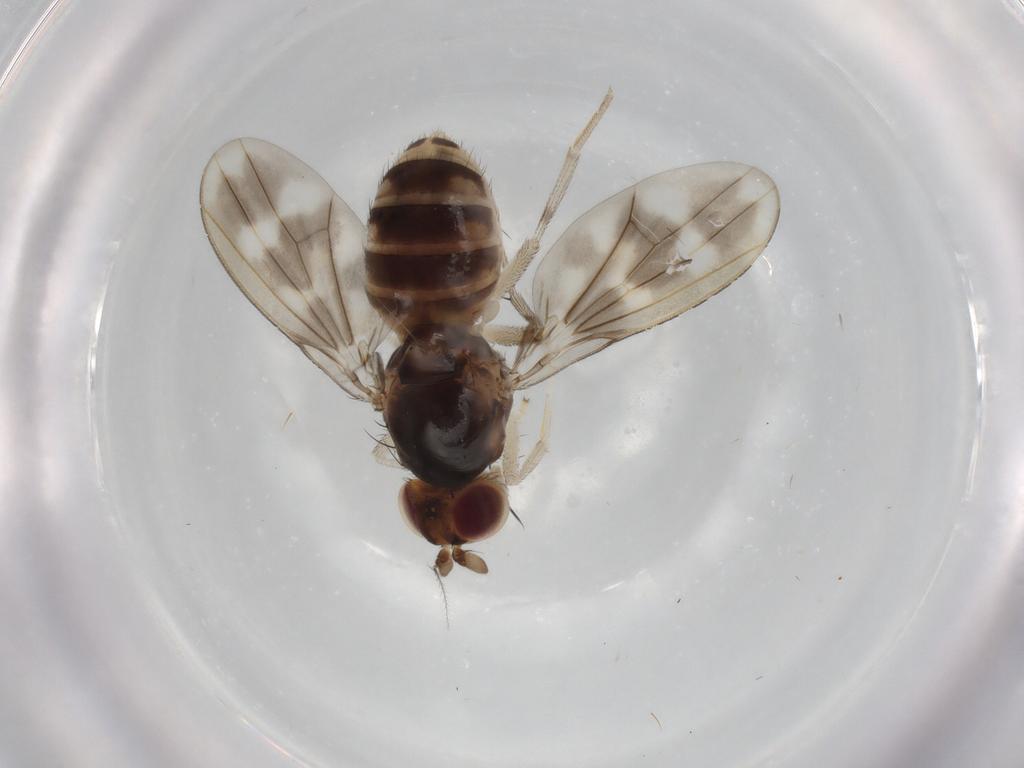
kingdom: Animalia
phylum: Arthropoda
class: Insecta
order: Diptera
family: Lauxaniidae
